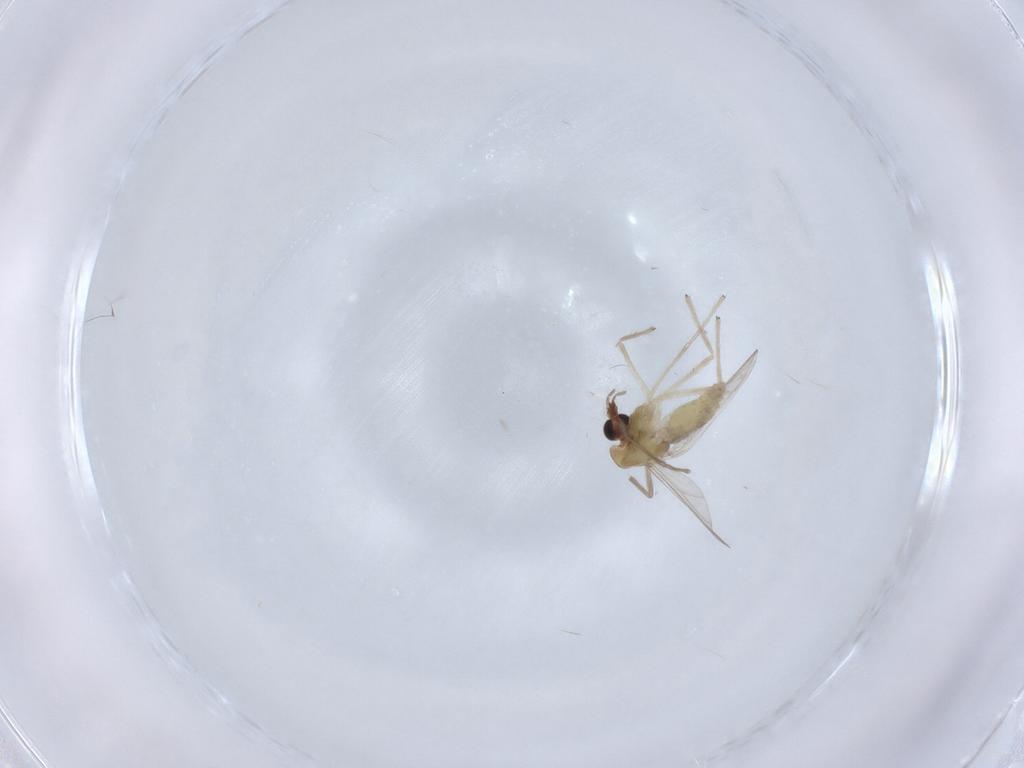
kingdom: Animalia
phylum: Arthropoda
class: Insecta
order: Diptera
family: Chironomidae
